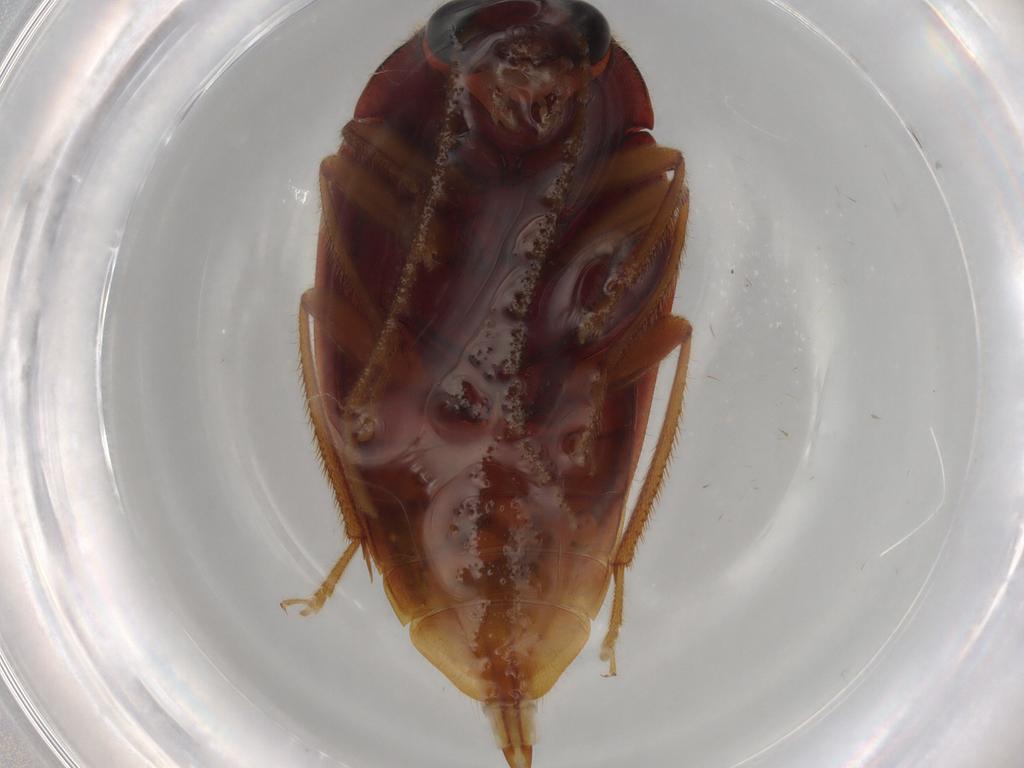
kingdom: Animalia
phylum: Arthropoda
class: Insecta
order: Coleoptera
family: Ptilodactylidae
